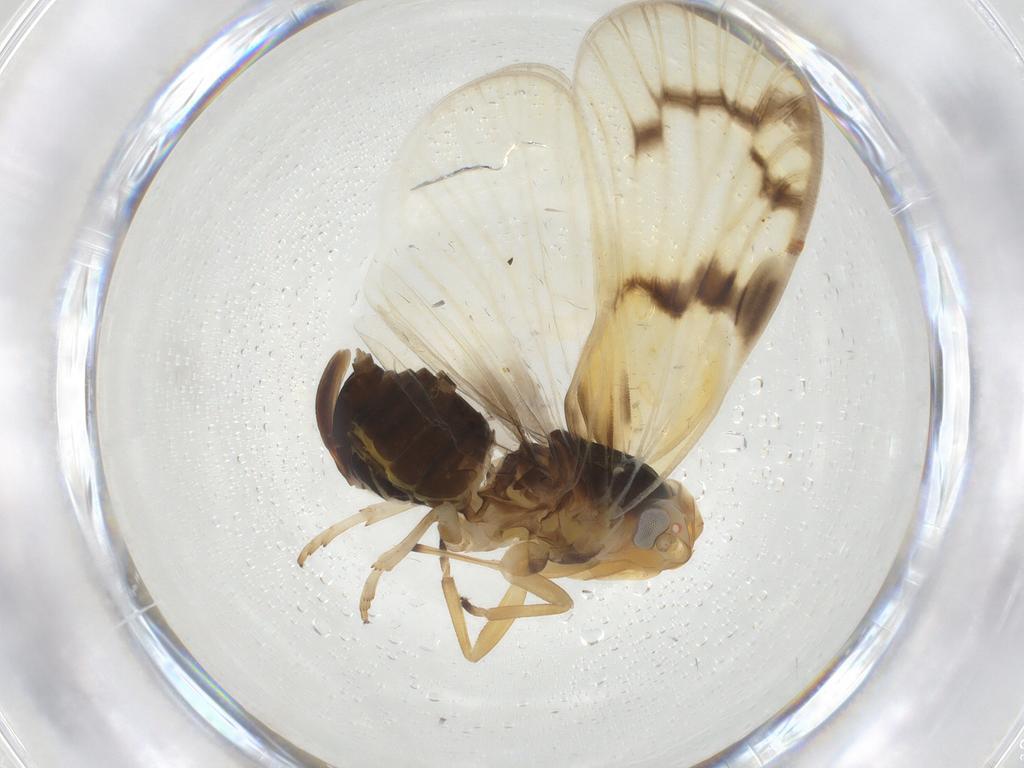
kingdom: Animalia
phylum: Arthropoda
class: Insecta
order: Hemiptera
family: Cixiidae
